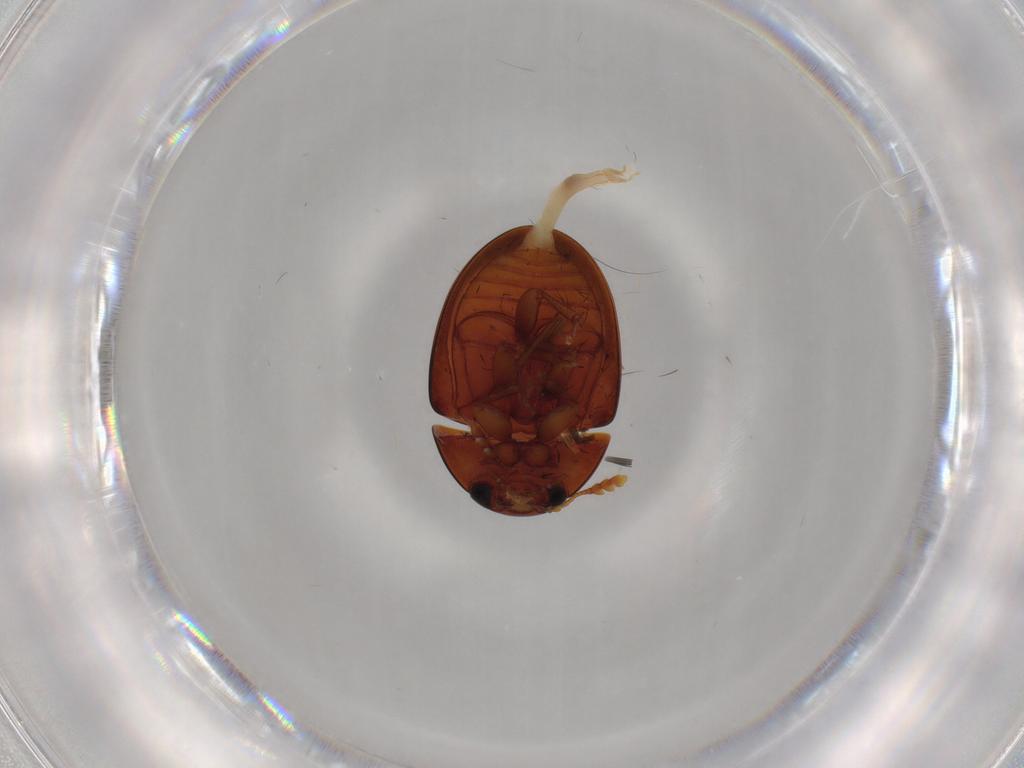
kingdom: Animalia
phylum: Arthropoda
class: Insecta
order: Coleoptera
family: Phalacridae
